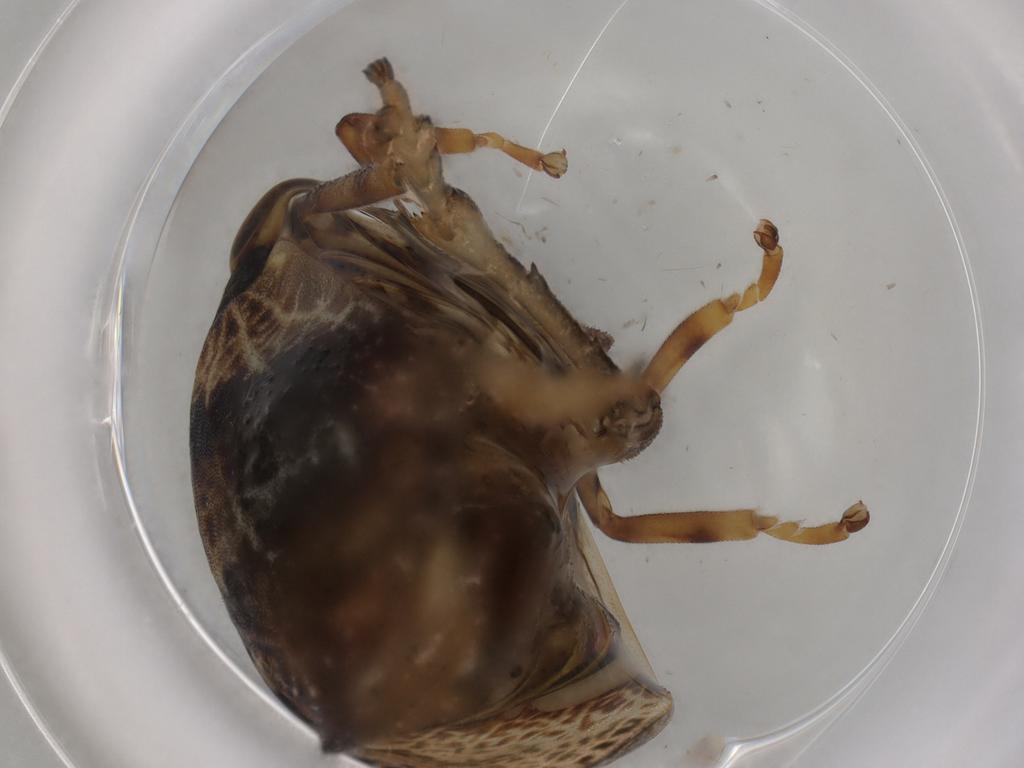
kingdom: Animalia
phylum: Arthropoda
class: Insecta
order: Hemiptera
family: Aphrophoridae
